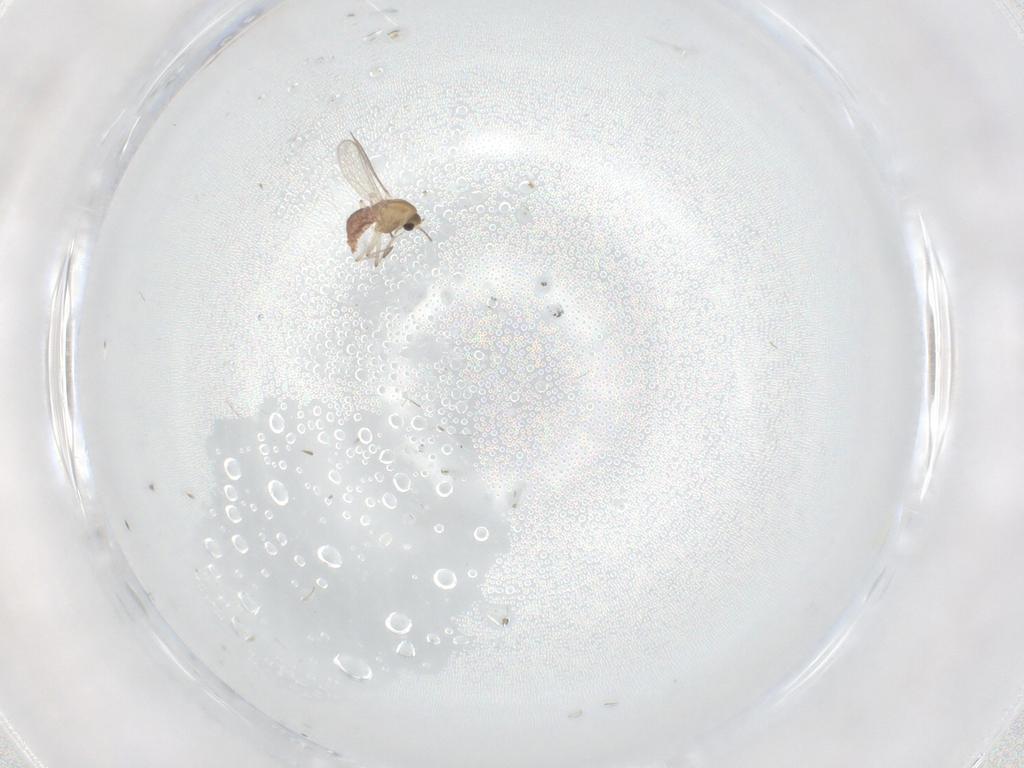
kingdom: Animalia
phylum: Arthropoda
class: Insecta
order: Diptera
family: Chironomidae
